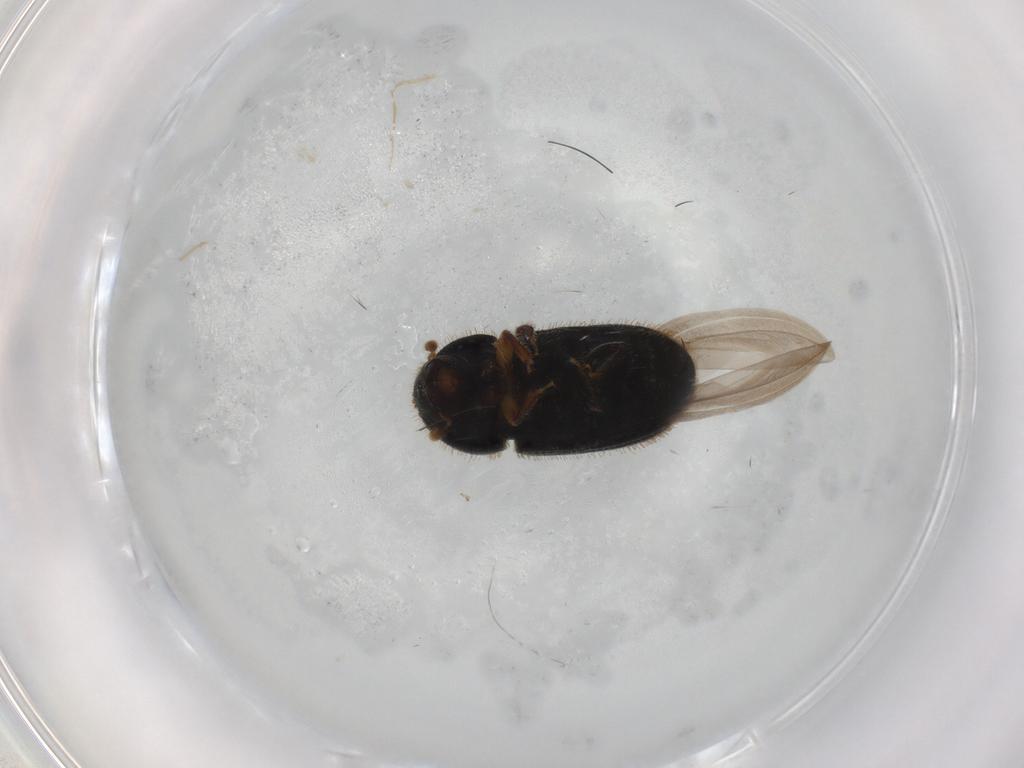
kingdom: Animalia
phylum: Arthropoda
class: Insecta
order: Coleoptera
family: Curculionidae
